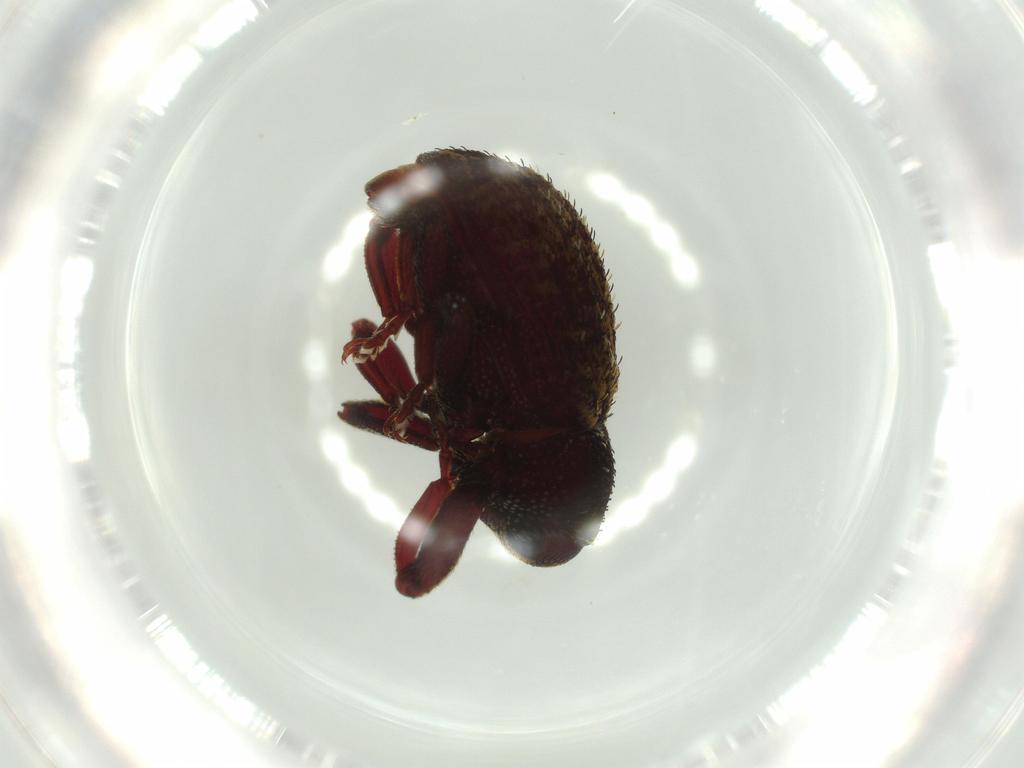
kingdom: Animalia
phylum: Arthropoda
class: Insecta
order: Coleoptera
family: Curculionidae
